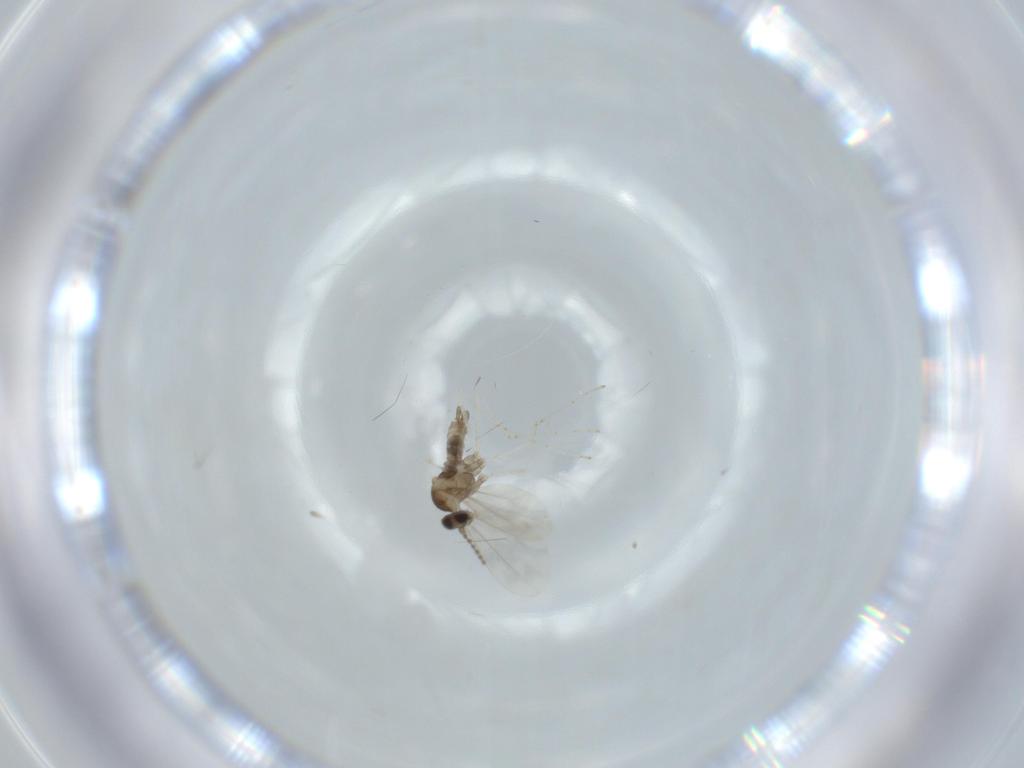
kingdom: Animalia
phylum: Arthropoda
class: Insecta
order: Diptera
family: Cecidomyiidae
